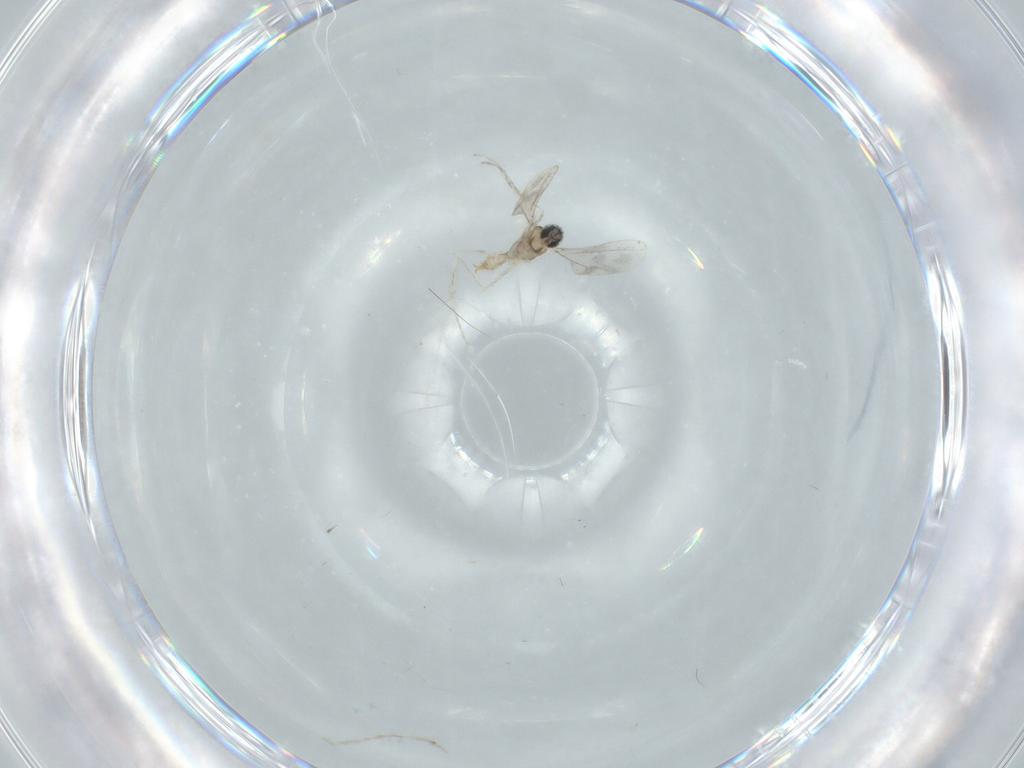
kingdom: Animalia
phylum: Arthropoda
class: Insecta
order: Diptera
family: Cecidomyiidae
